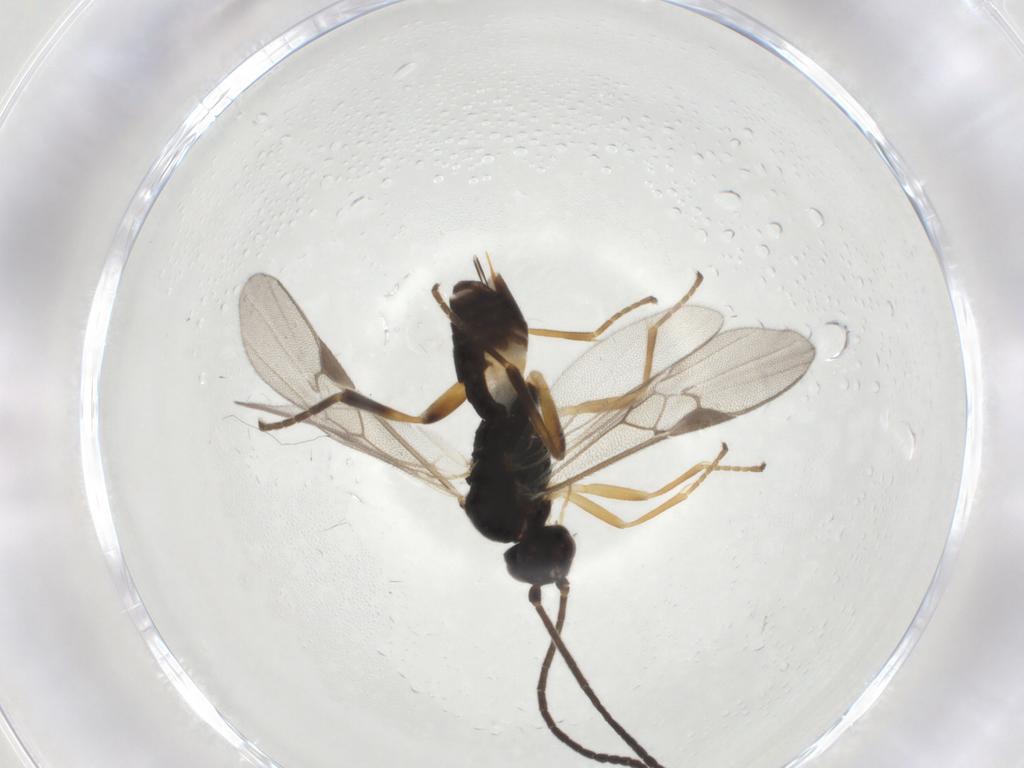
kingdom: Animalia
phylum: Arthropoda
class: Insecta
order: Hymenoptera
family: Braconidae
